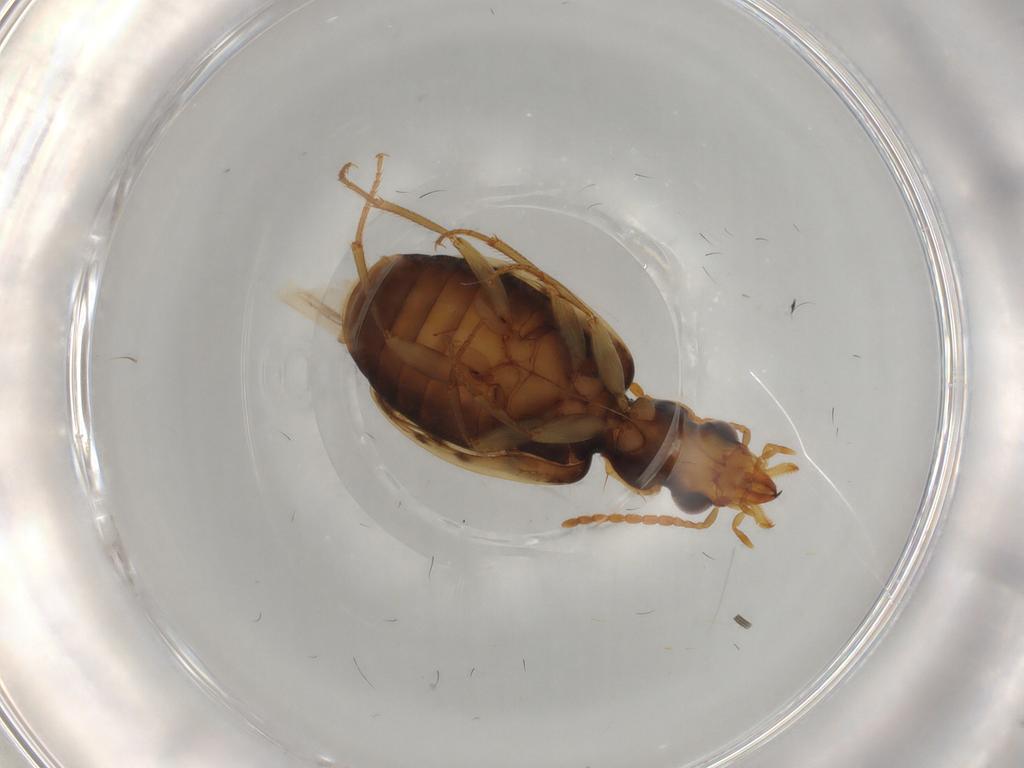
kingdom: Animalia
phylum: Arthropoda
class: Insecta
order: Coleoptera
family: Carabidae
